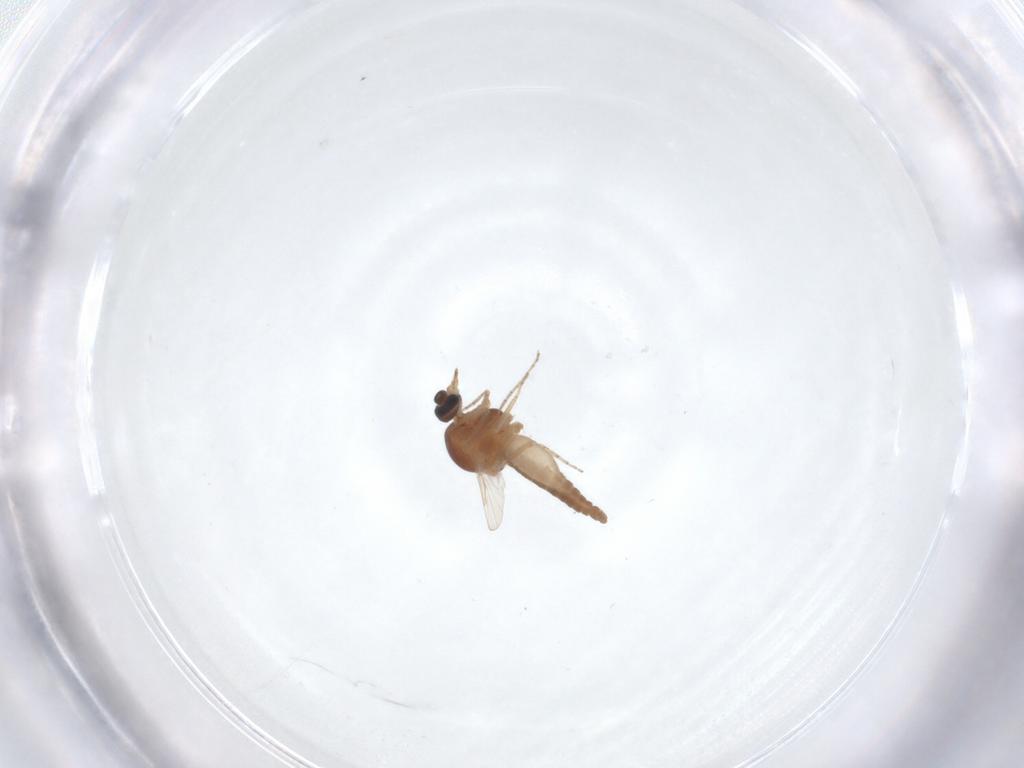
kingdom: Animalia
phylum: Arthropoda
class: Insecta
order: Diptera
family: Ceratopogonidae
